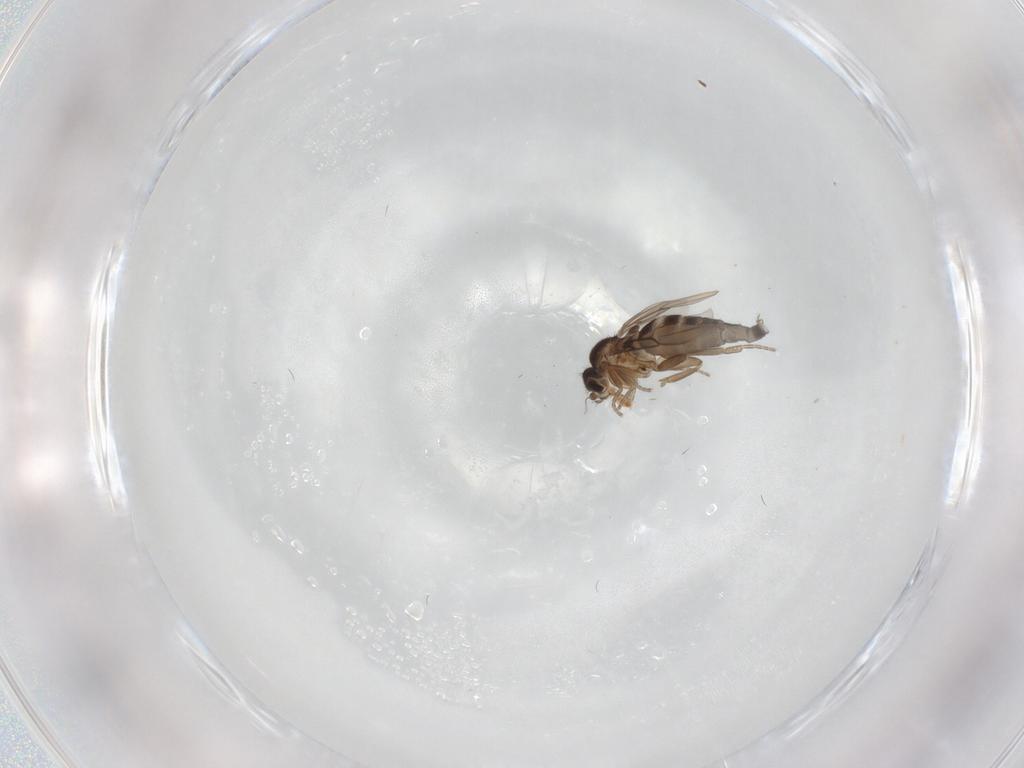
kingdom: Animalia
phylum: Arthropoda
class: Insecta
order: Diptera
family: Phoridae
